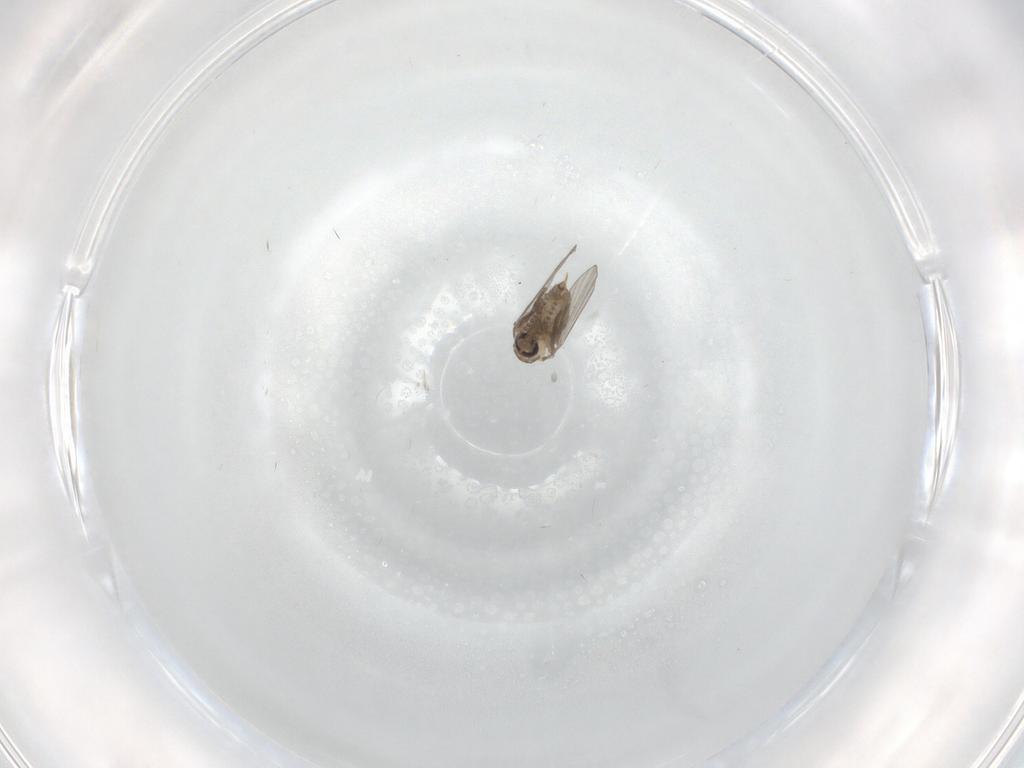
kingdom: Animalia
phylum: Arthropoda
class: Insecta
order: Diptera
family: Psychodidae
